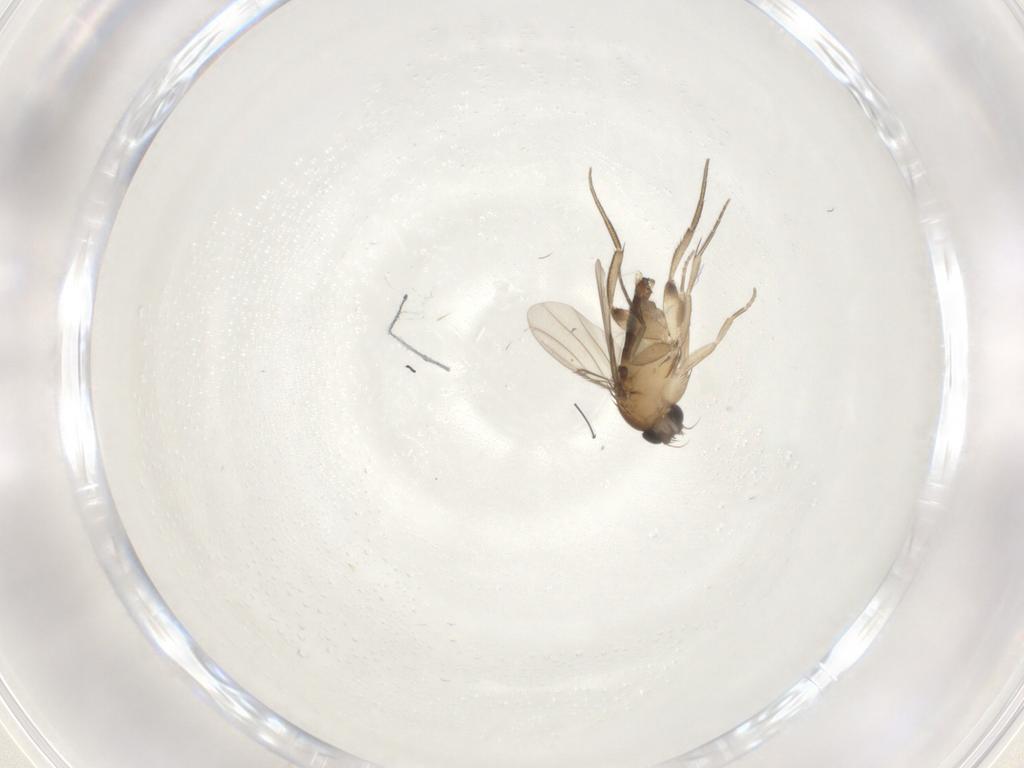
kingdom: Animalia
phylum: Arthropoda
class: Insecta
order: Diptera
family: Phoridae
